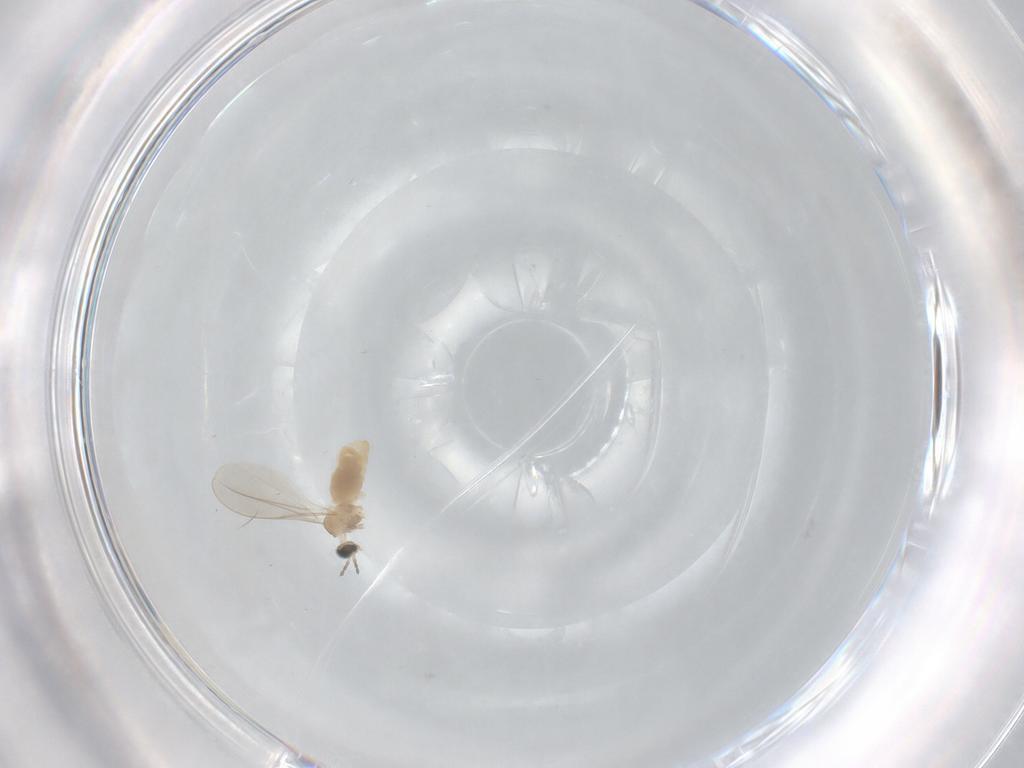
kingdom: Animalia
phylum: Arthropoda
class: Insecta
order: Diptera
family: Cecidomyiidae
